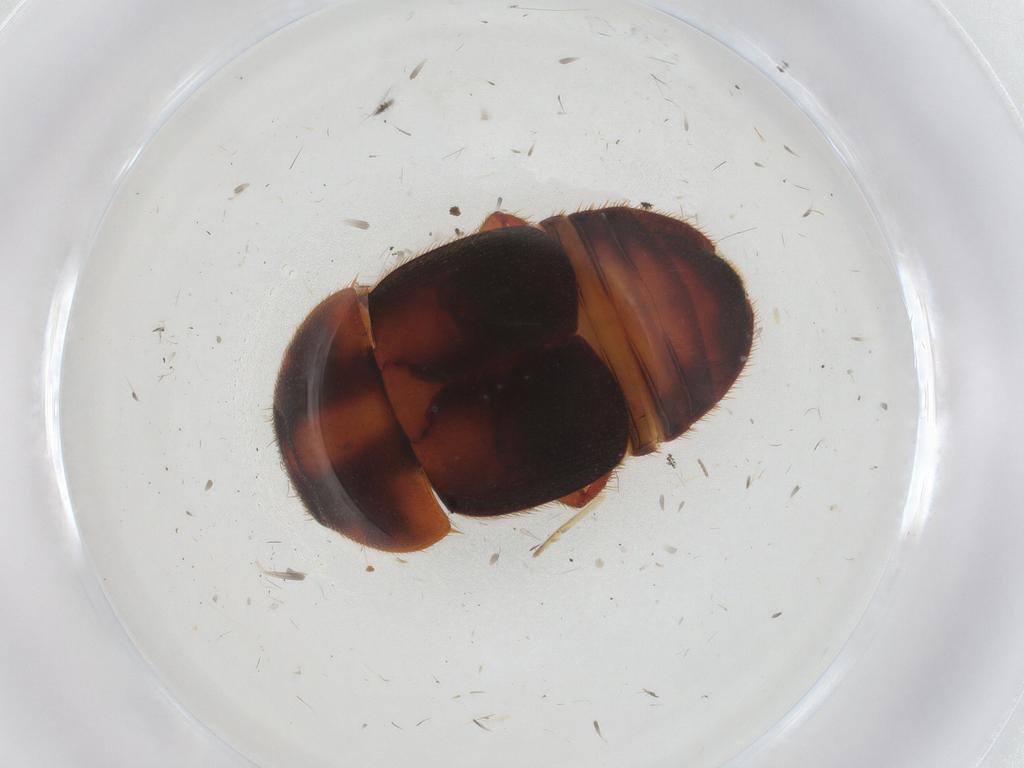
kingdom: Animalia
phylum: Arthropoda
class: Insecta
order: Coleoptera
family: Nitidulidae
